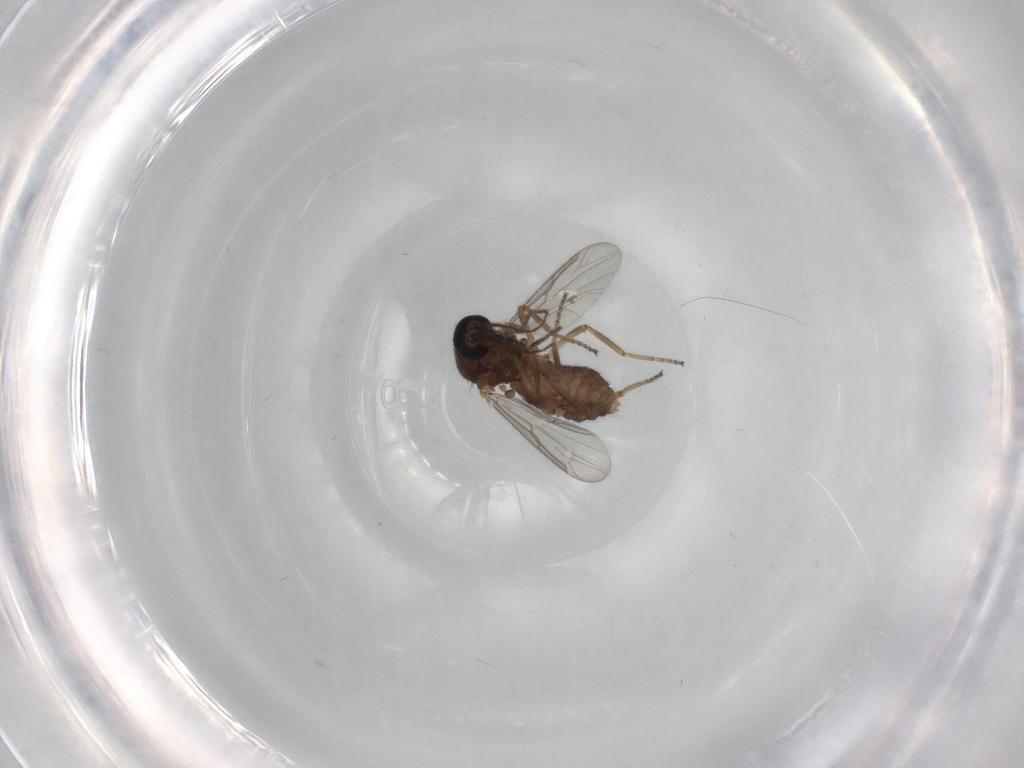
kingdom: Animalia
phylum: Arthropoda
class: Insecta
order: Diptera
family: Ceratopogonidae
